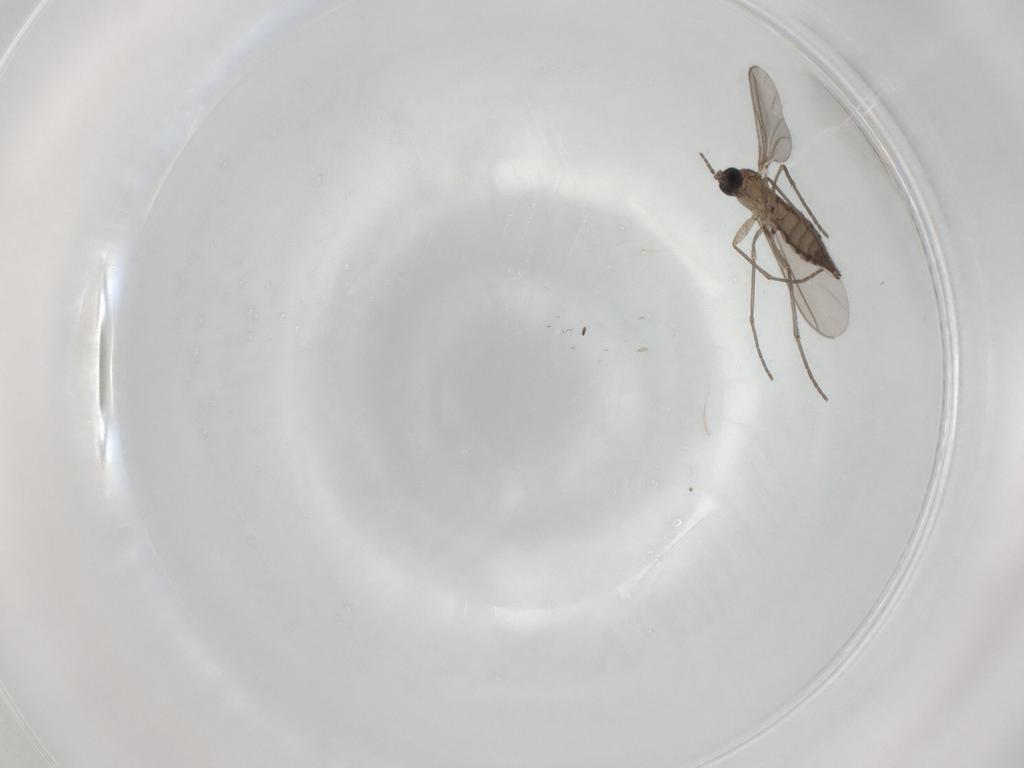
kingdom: Animalia
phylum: Arthropoda
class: Insecta
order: Diptera
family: Sciaridae
